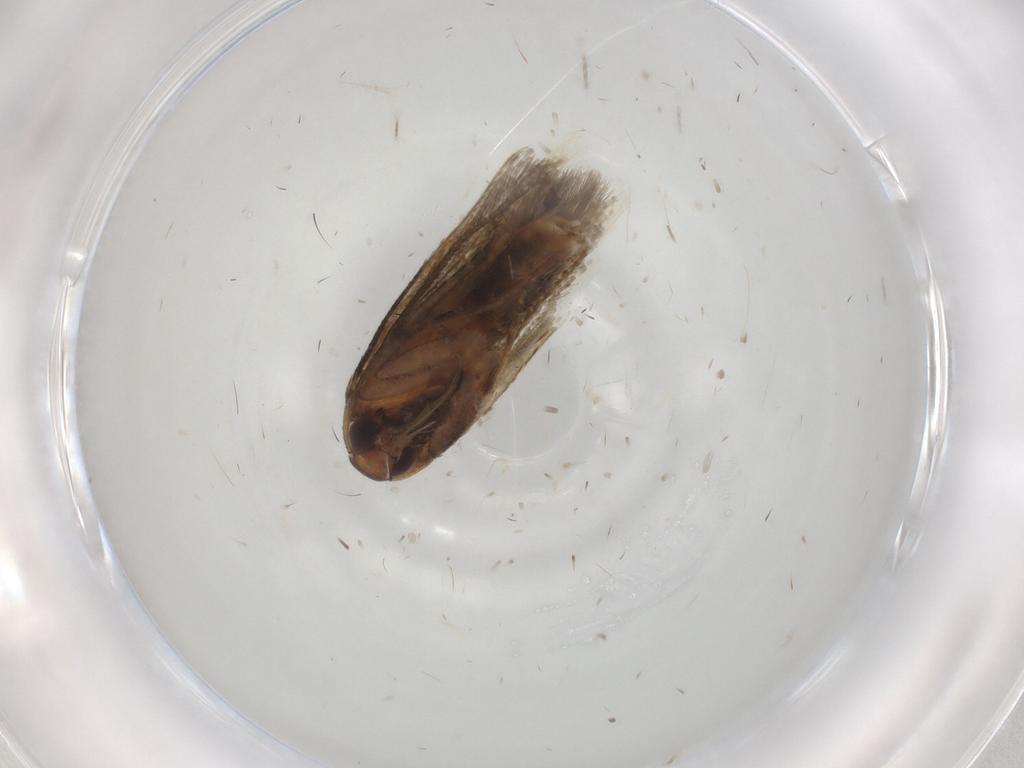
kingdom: Animalia
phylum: Arthropoda
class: Insecta
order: Lepidoptera
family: Cosmopterigidae
